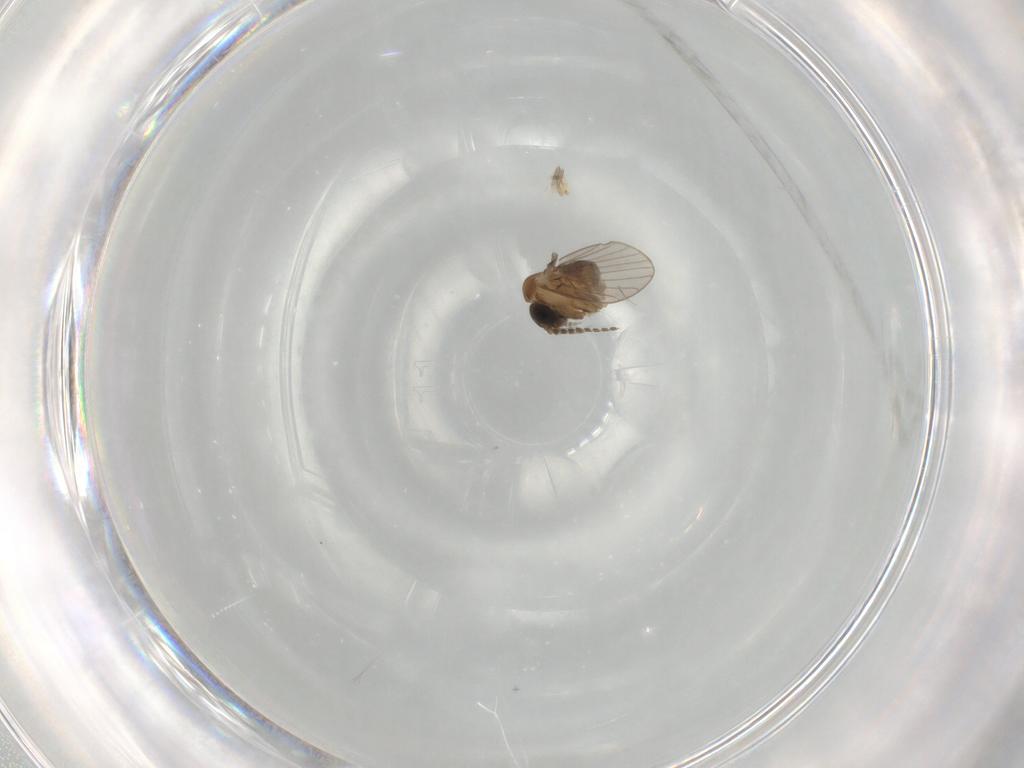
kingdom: Animalia
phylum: Arthropoda
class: Insecta
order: Diptera
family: Psychodidae
